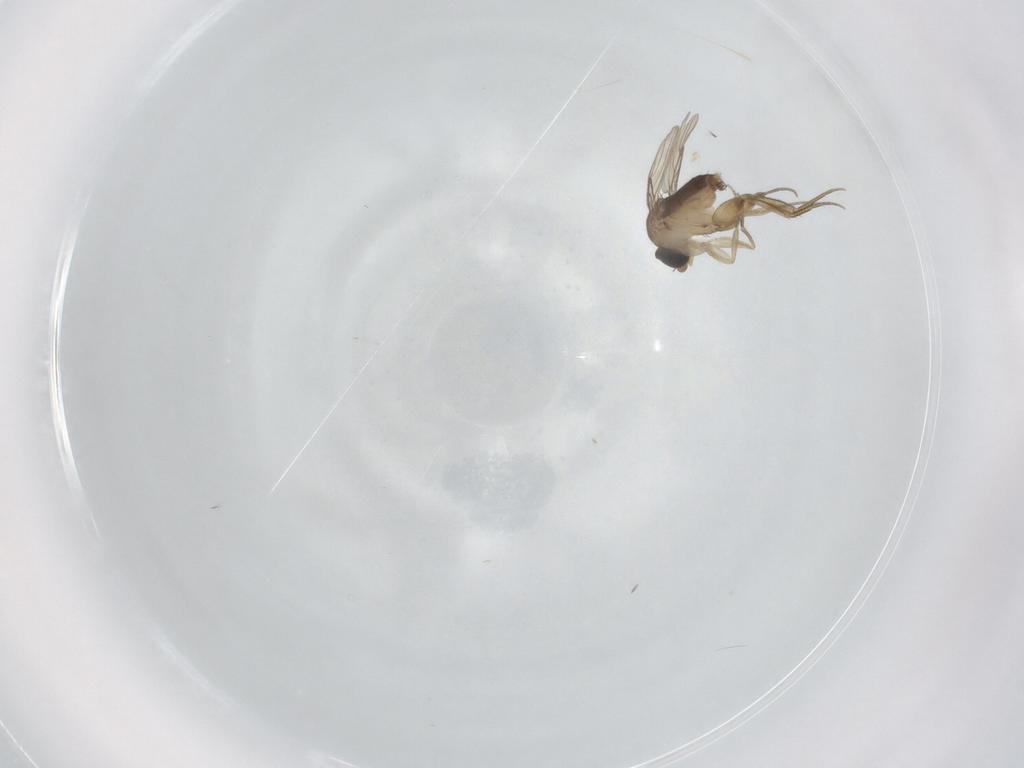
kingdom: Animalia
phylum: Arthropoda
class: Insecta
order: Diptera
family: Phoridae
